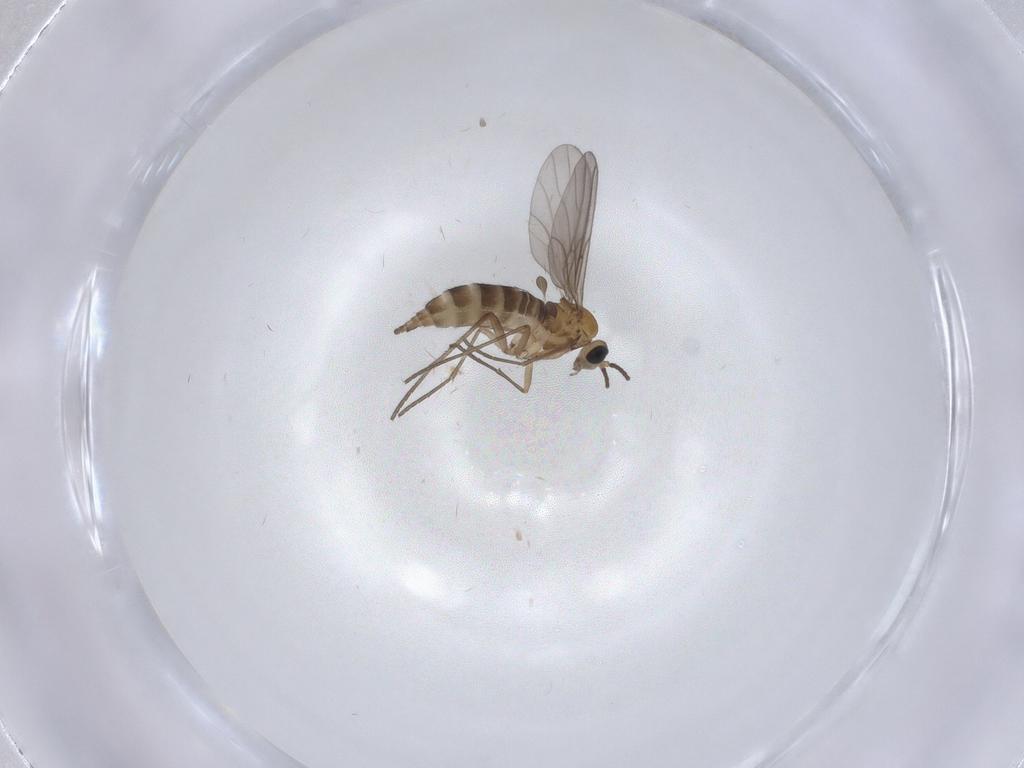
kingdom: Animalia
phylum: Arthropoda
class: Insecta
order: Diptera
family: Sciaridae
